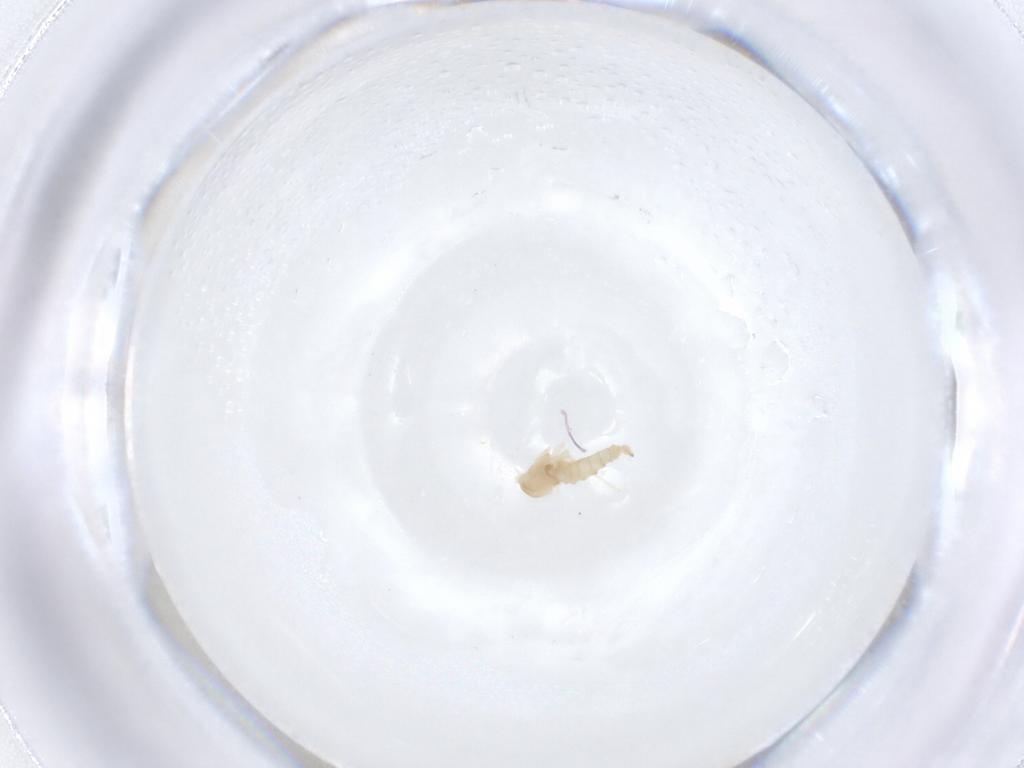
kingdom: Animalia
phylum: Arthropoda
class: Insecta
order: Diptera
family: Cecidomyiidae
